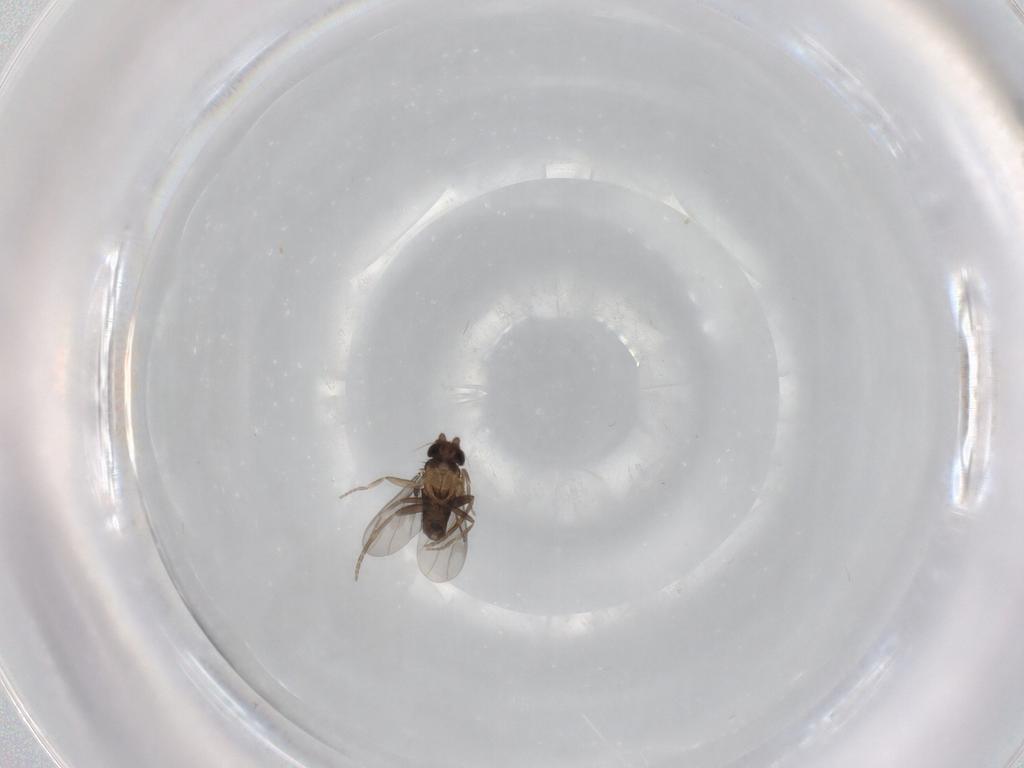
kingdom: Animalia
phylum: Arthropoda
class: Insecta
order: Diptera
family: Phoridae
